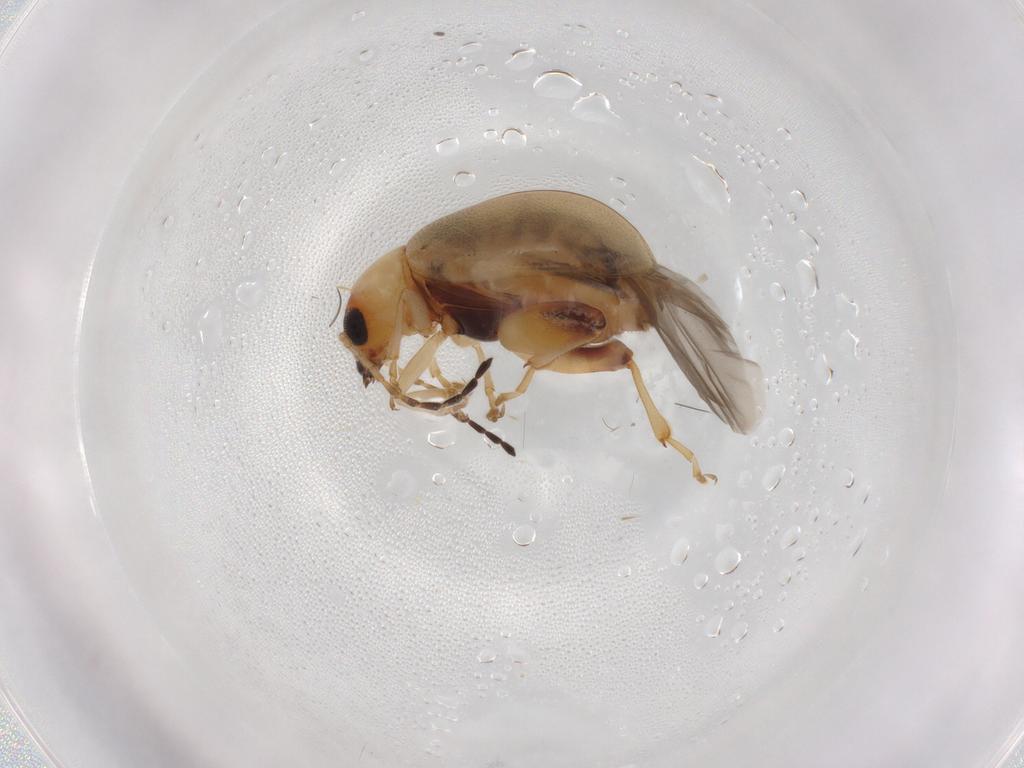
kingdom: Animalia
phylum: Arthropoda
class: Insecta
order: Coleoptera
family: Chrysomelidae
